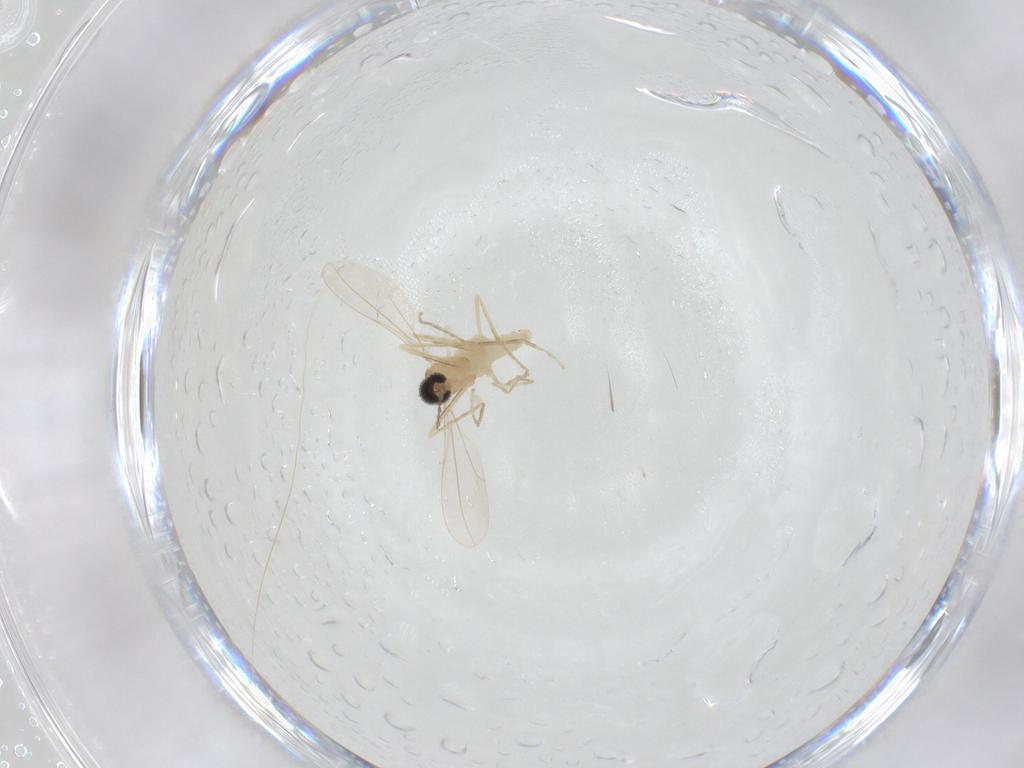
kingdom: Animalia
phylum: Arthropoda
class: Insecta
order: Diptera
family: Cecidomyiidae
